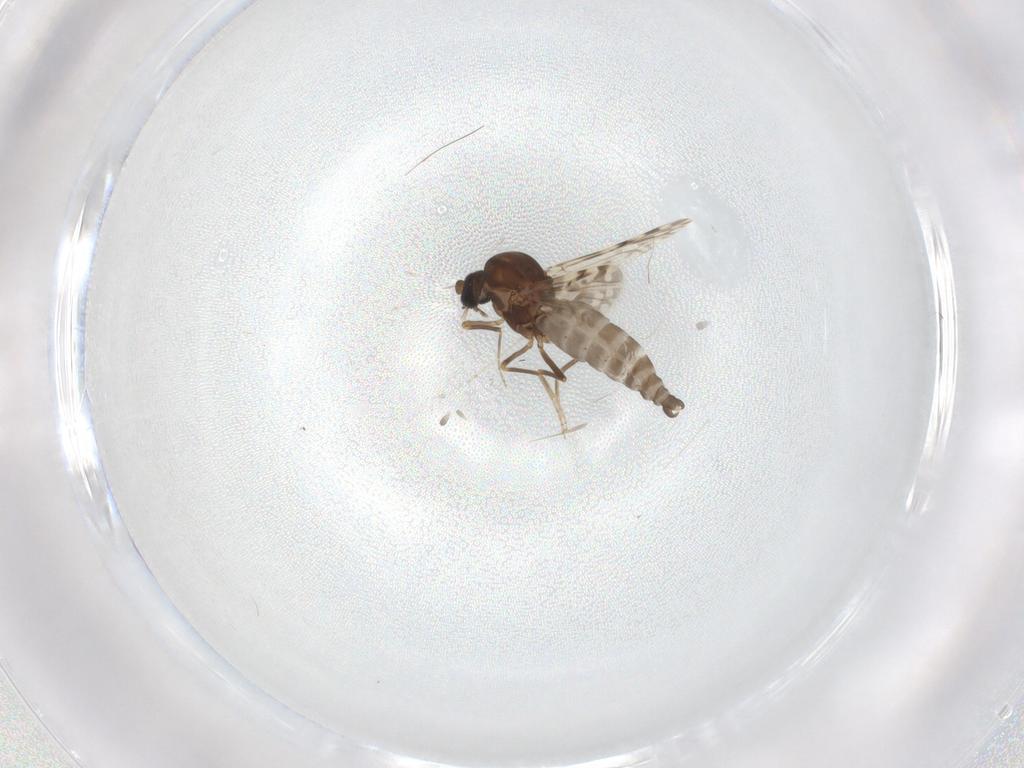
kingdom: Animalia
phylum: Arthropoda
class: Insecta
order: Diptera
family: Ceratopogonidae
